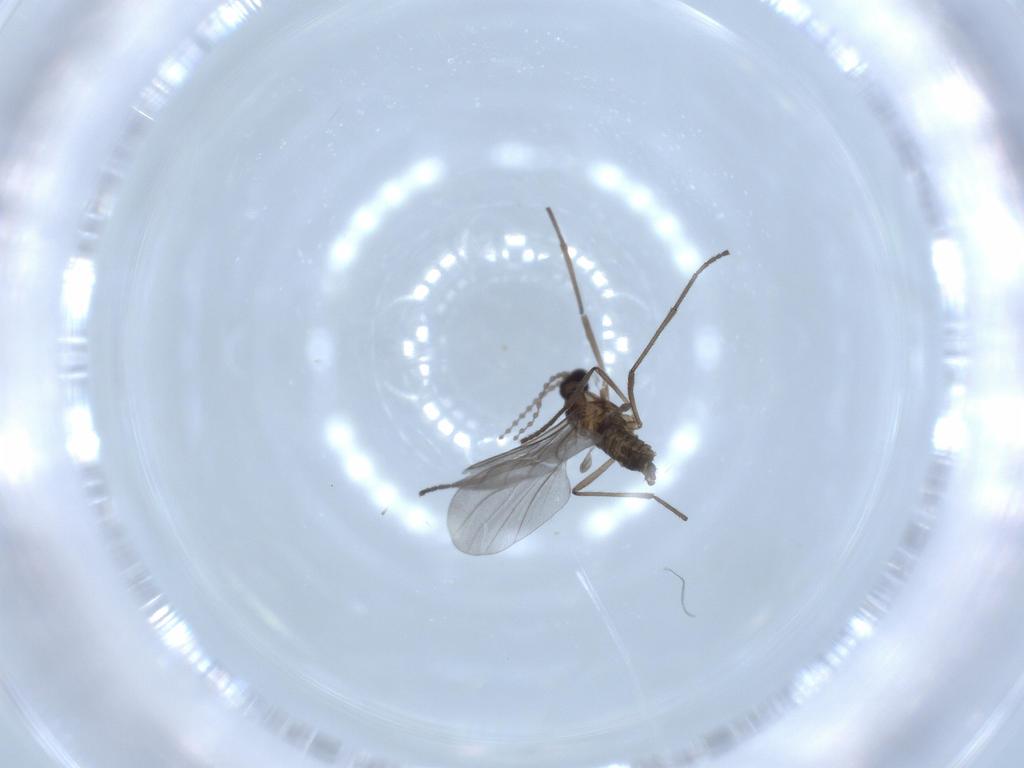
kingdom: Animalia
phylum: Arthropoda
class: Insecta
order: Diptera
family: Cecidomyiidae
